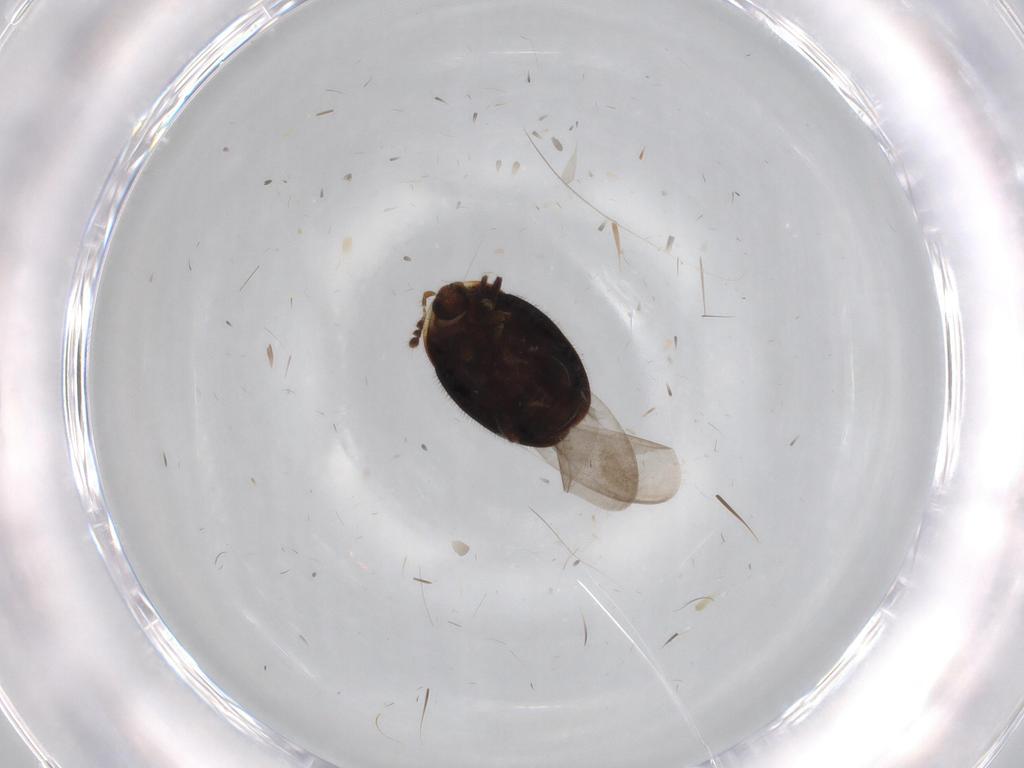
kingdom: Animalia
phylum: Arthropoda
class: Insecta
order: Coleoptera
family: Corylophidae
